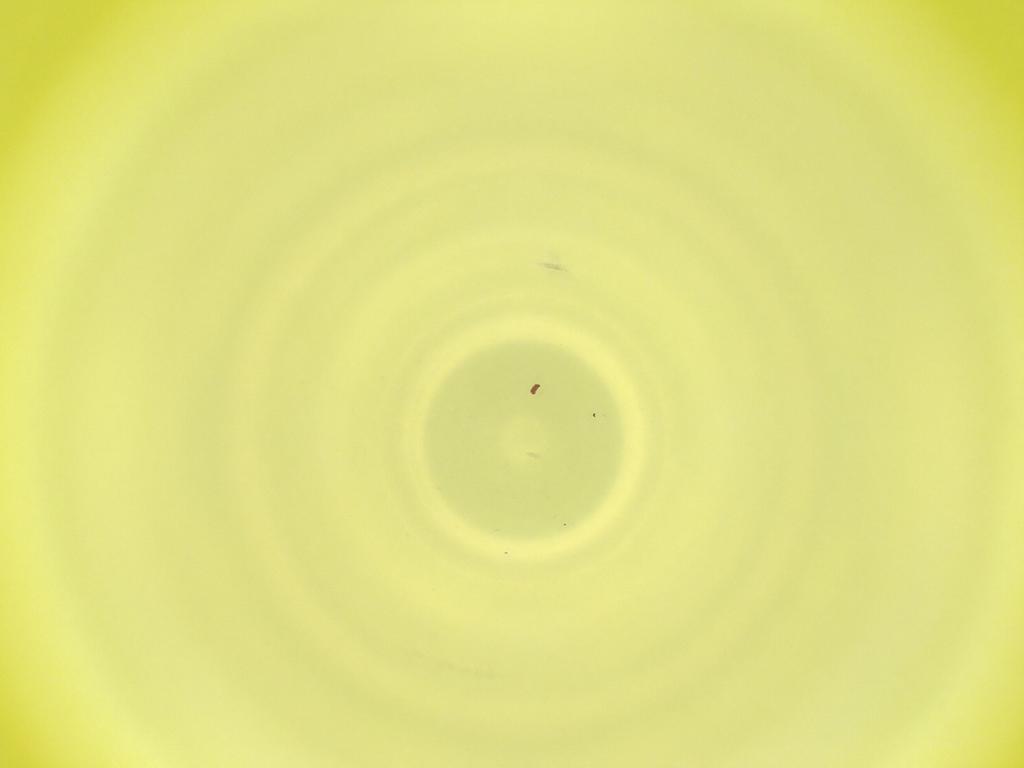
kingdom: Animalia
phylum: Arthropoda
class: Insecta
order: Diptera
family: Cecidomyiidae
